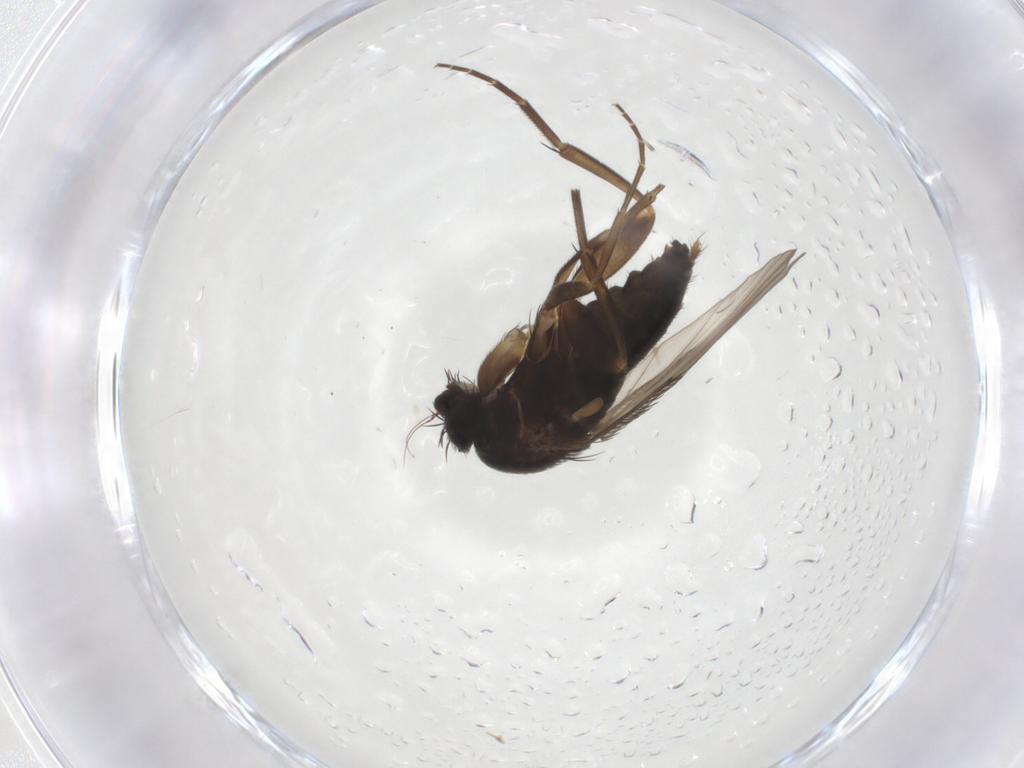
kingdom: Animalia
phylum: Arthropoda
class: Insecta
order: Diptera
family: Phoridae
